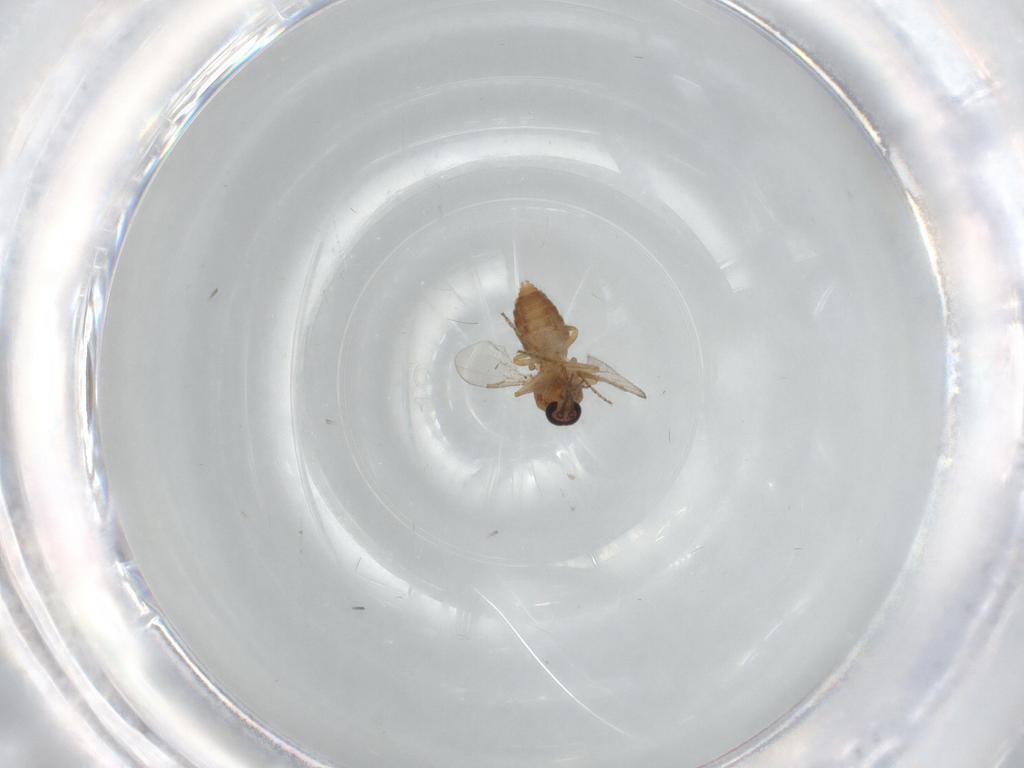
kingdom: Animalia
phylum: Arthropoda
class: Insecta
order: Diptera
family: Ceratopogonidae
